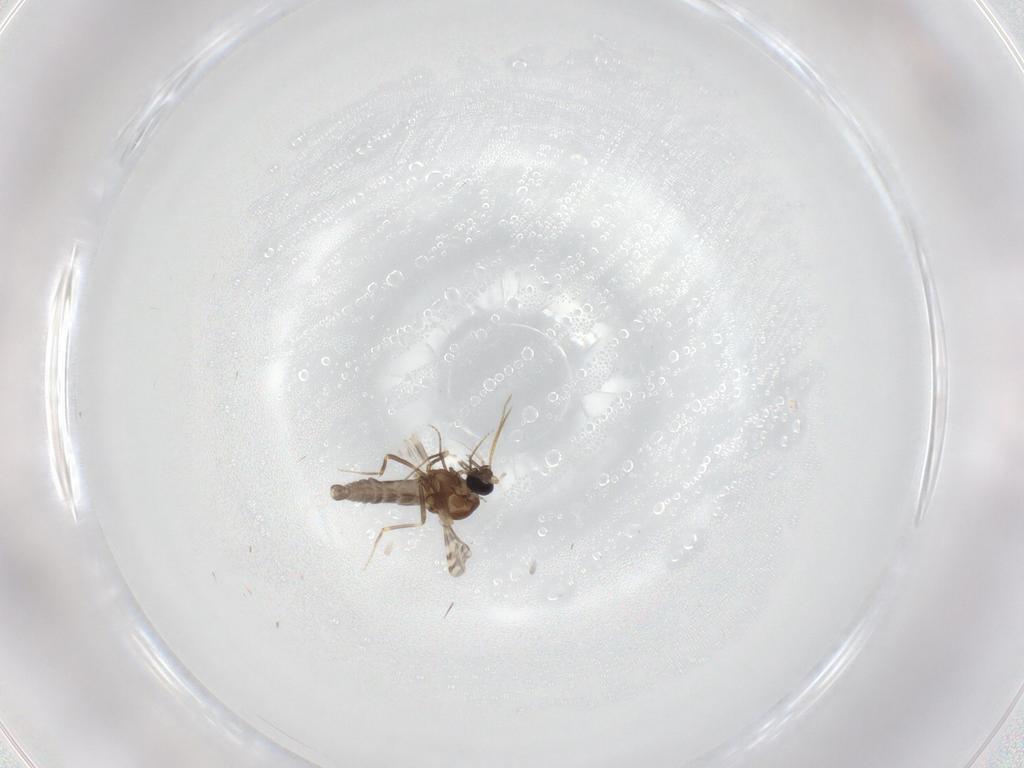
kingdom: Animalia
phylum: Arthropoda
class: Insecta
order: Diptera
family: Ceratopogonidae
